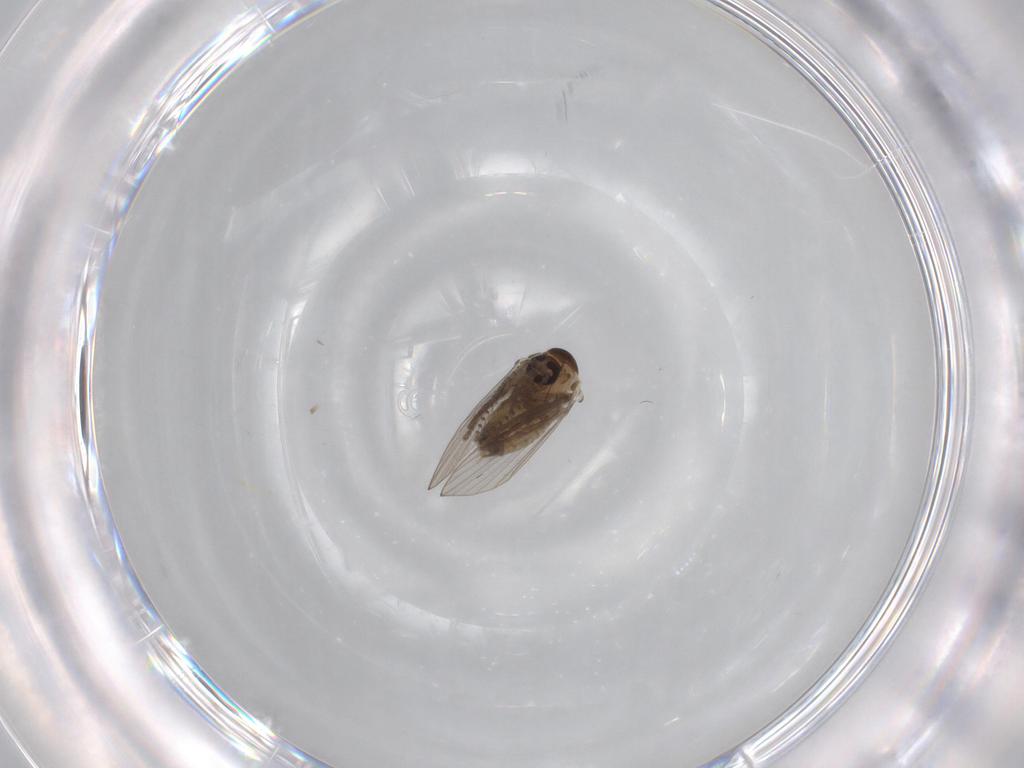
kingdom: Animalia
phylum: Arthropoda
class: Insecta
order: Diptera
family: Psychodidae
